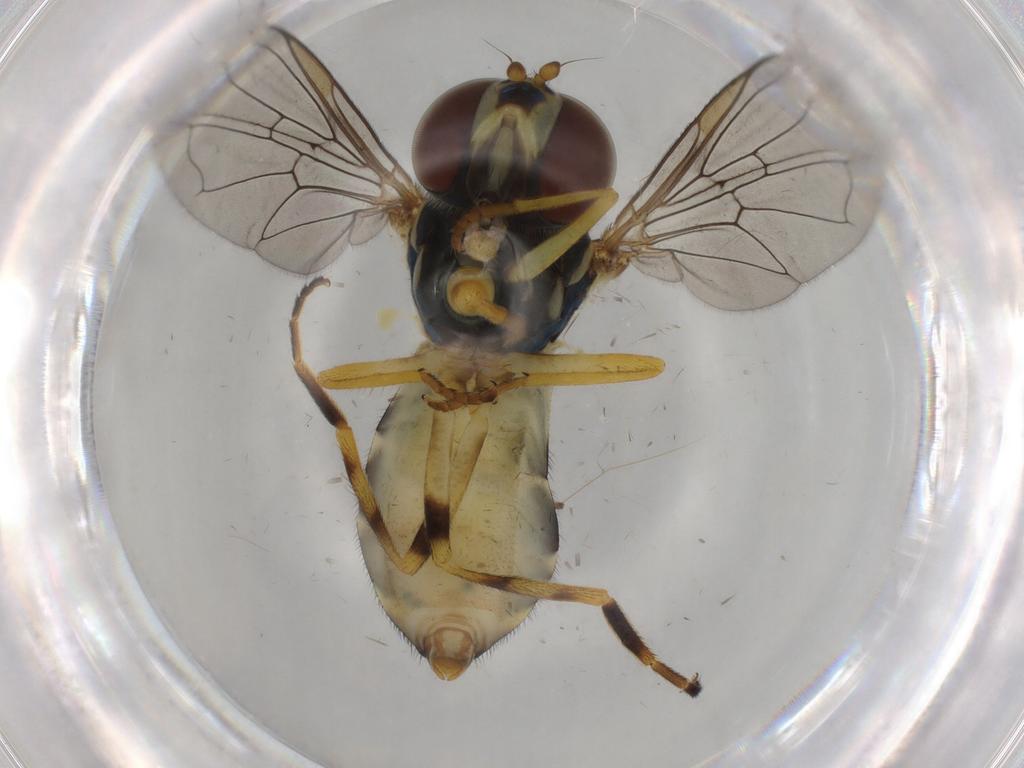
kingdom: Animalia
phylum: Arthropoda
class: Insecta
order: Diptera
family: Syrphidae
